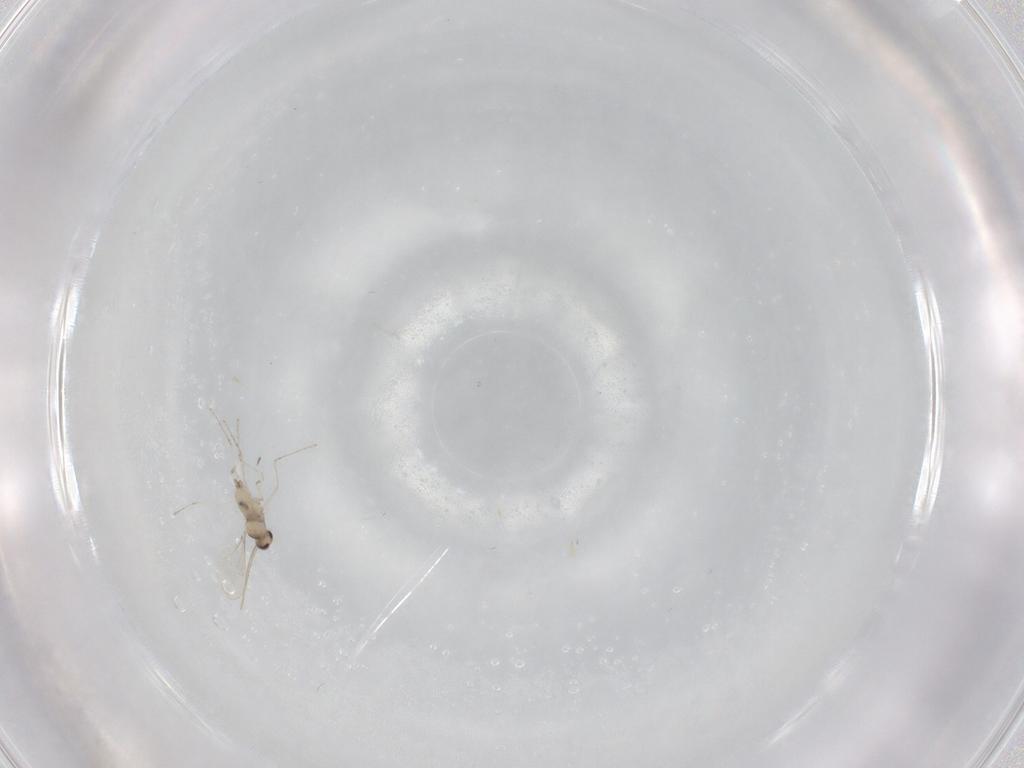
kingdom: Animalia
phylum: Arthropoda
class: Insecta
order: Diptera
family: Cecidomyiidae
